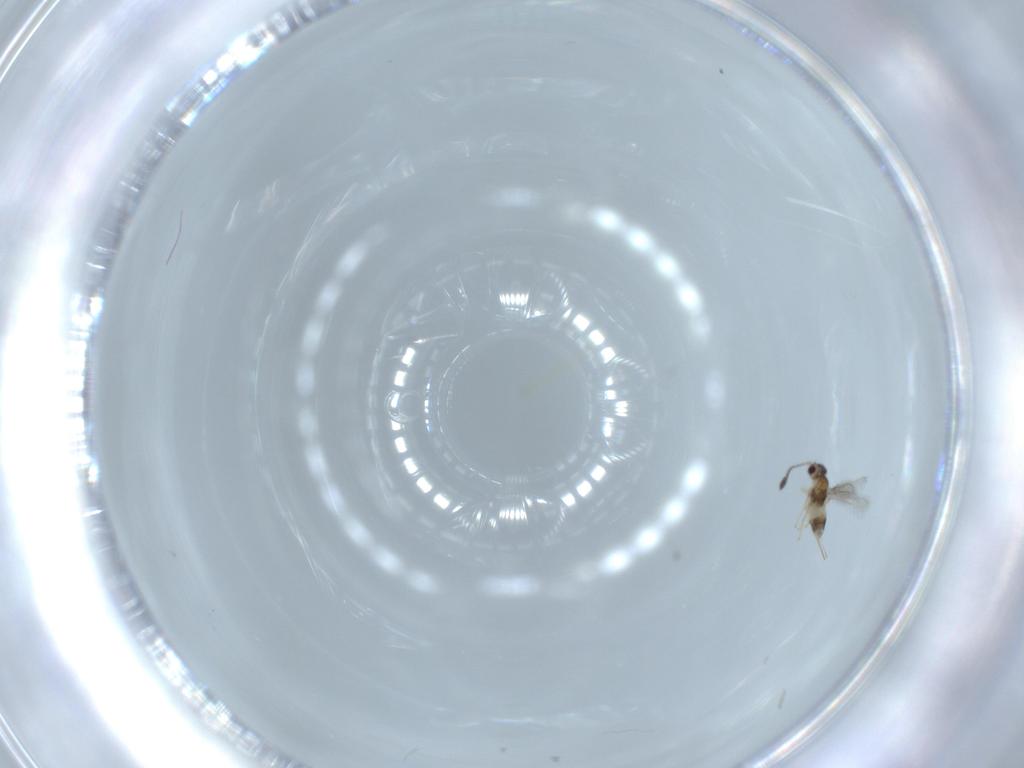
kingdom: Animalia
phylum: Arthropoda
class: Insecta
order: Hymenoptera
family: Mymaridae
